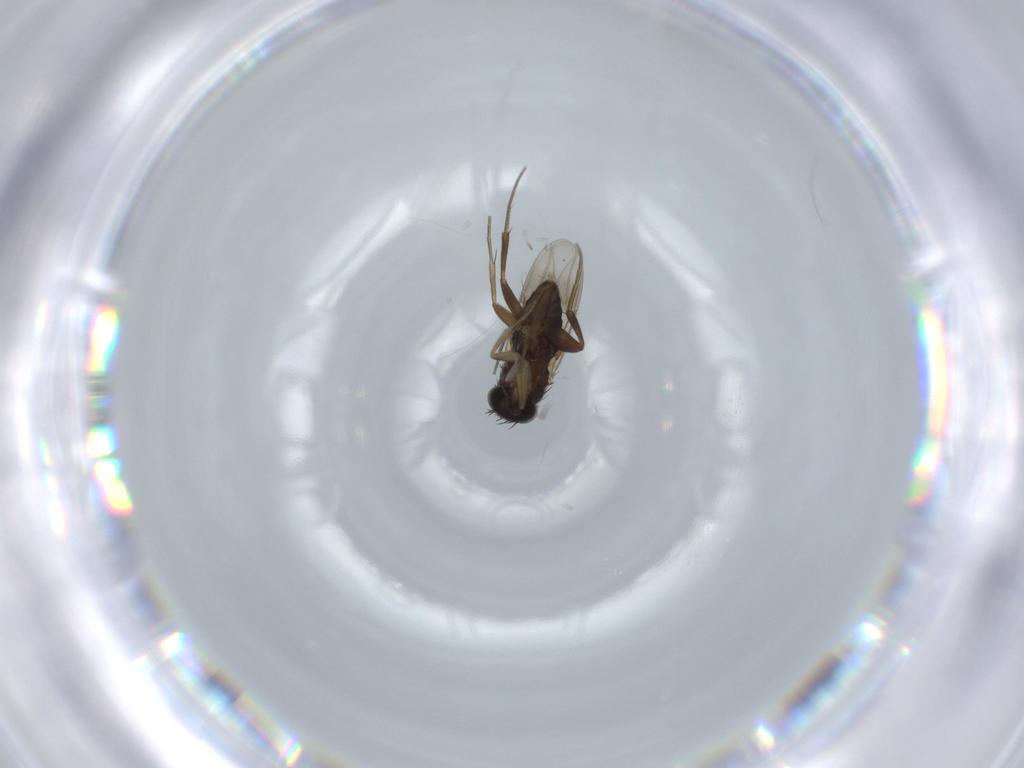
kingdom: Animalia
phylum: Arthropoda
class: Insecta
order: Diptera
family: Phoridae
